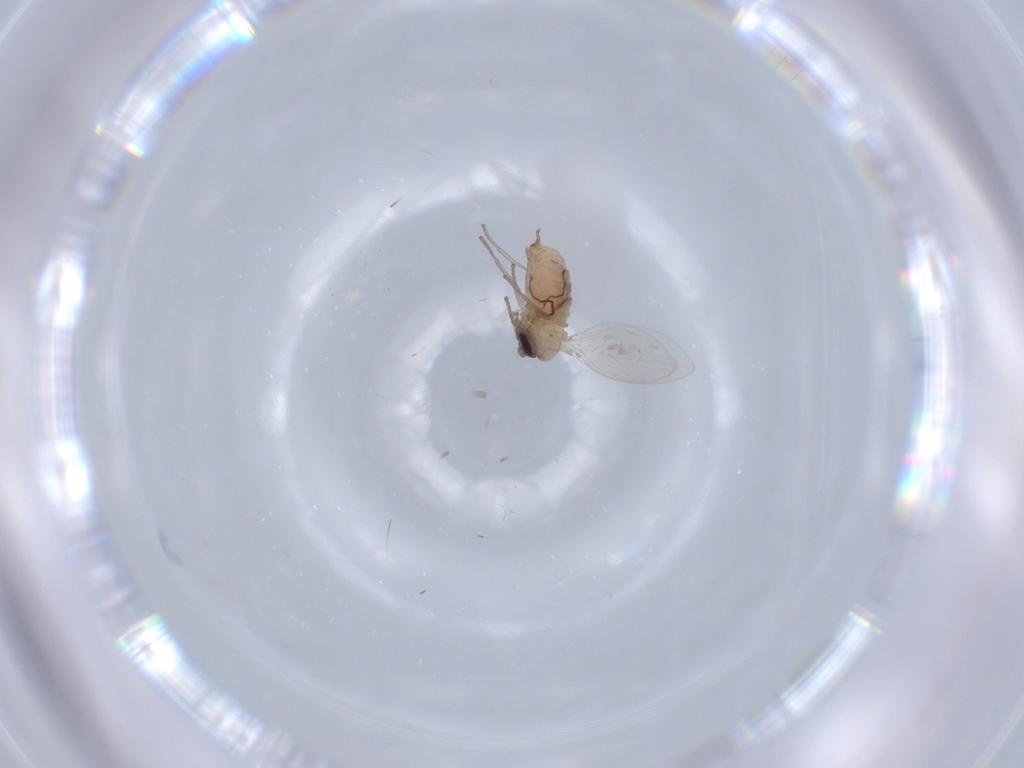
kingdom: Animalia
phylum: Arthropoda
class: Insecta
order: Diptera
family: Psychodidae
